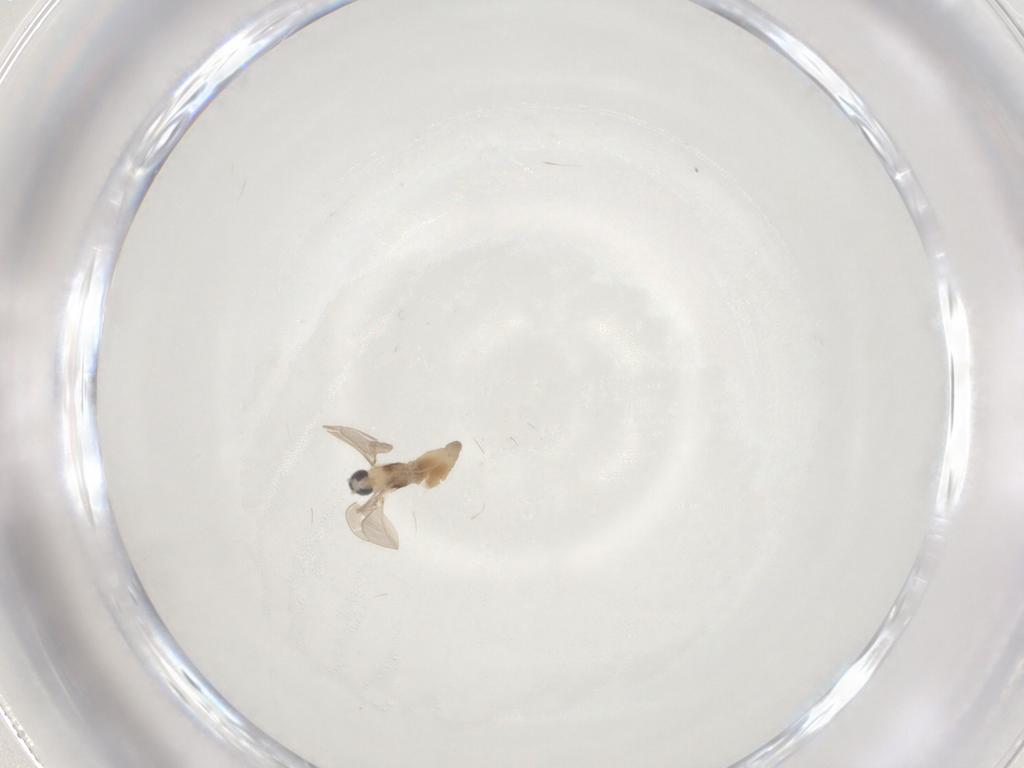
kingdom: Animalia
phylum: Arthropoda
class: Insecta
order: Diptera
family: Cecidomyiidae
